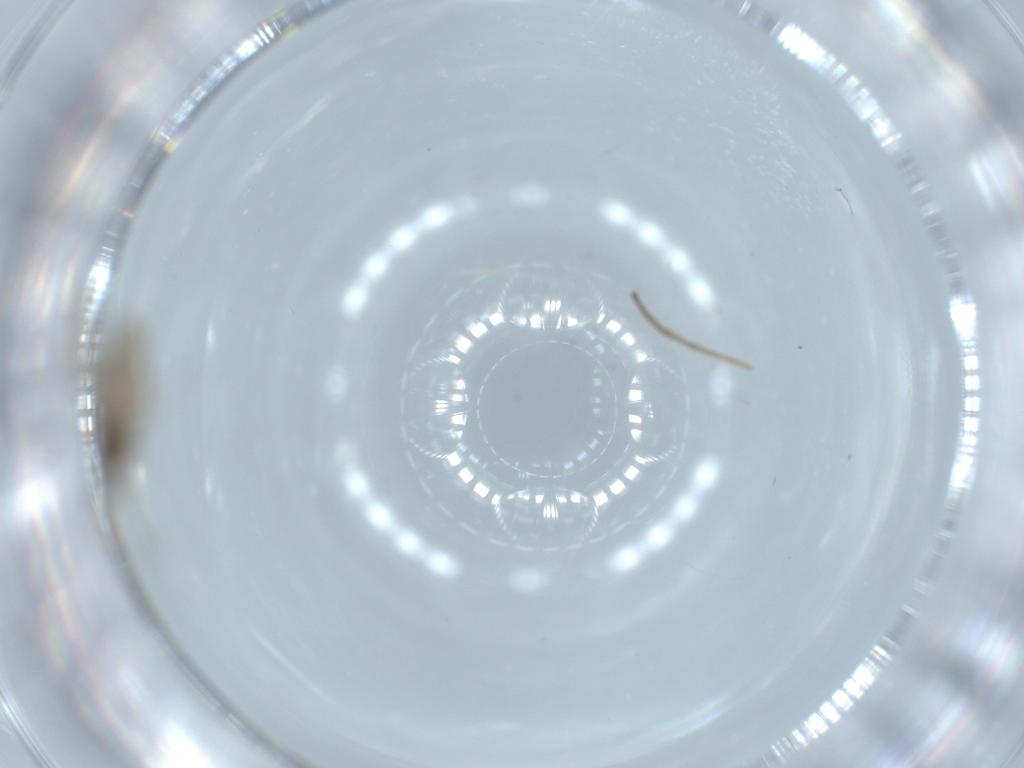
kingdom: Animalia
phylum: Arthropoda
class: Insecta
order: Diptera
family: Cecidomyiidae
